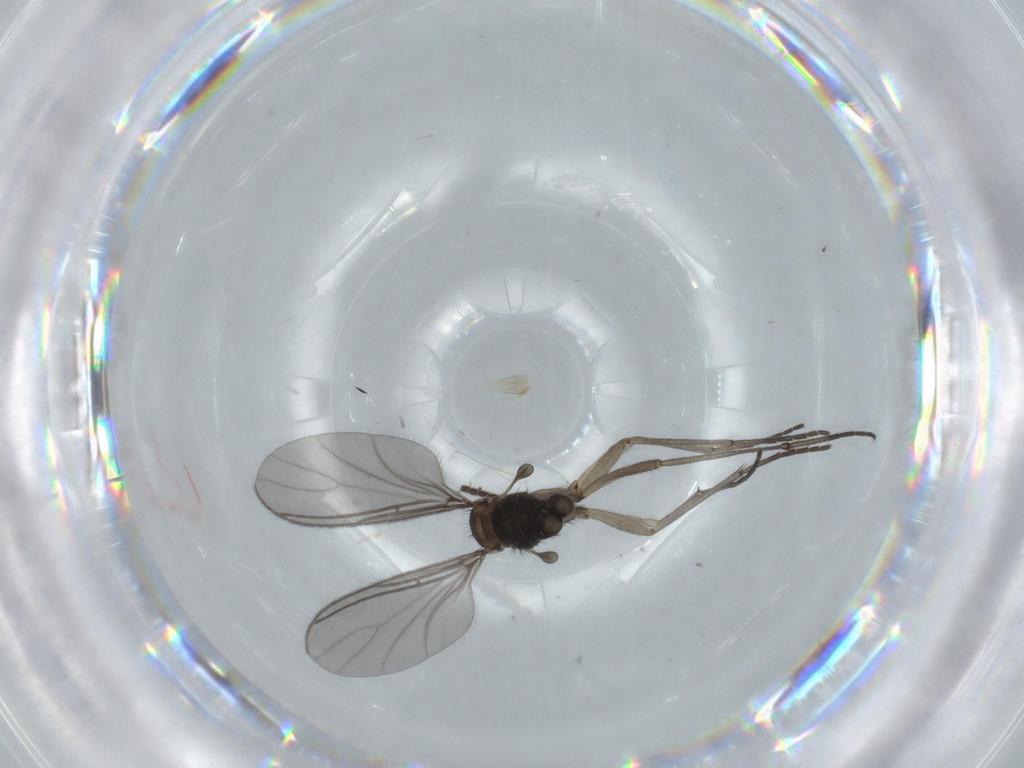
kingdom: Animalia
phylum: Arthropoda
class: Insecta
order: Diptera
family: Sciaridae
